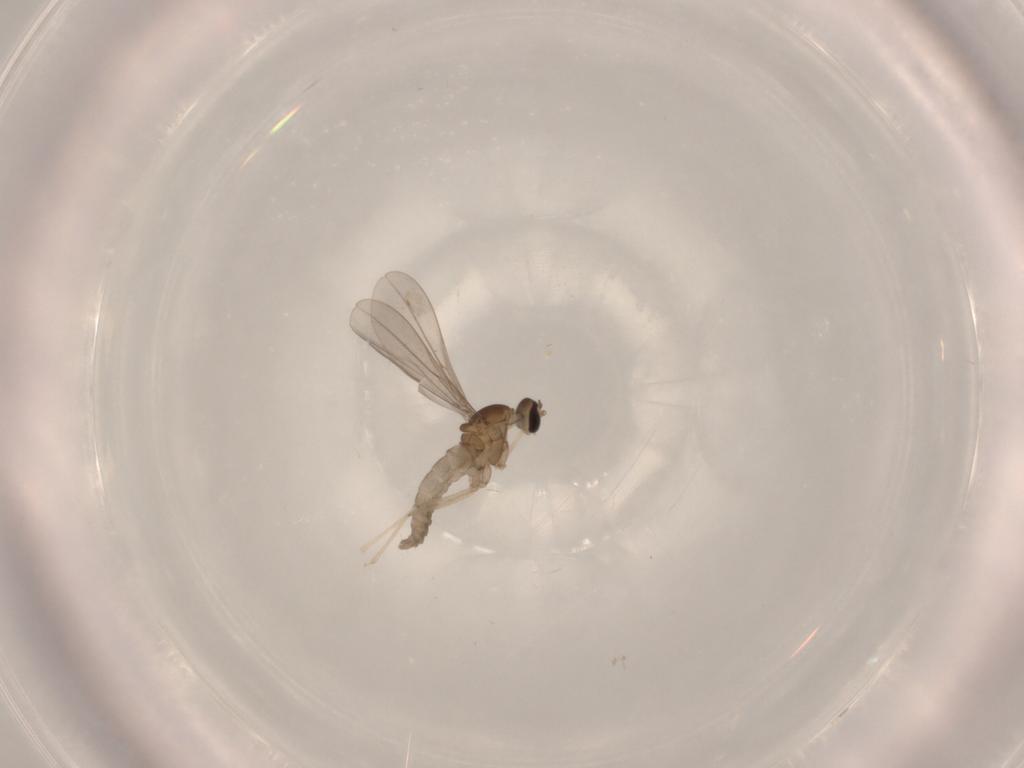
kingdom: Animalia
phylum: Arthropoda
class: Insecta
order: Diptera
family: Cecidomyiidae
